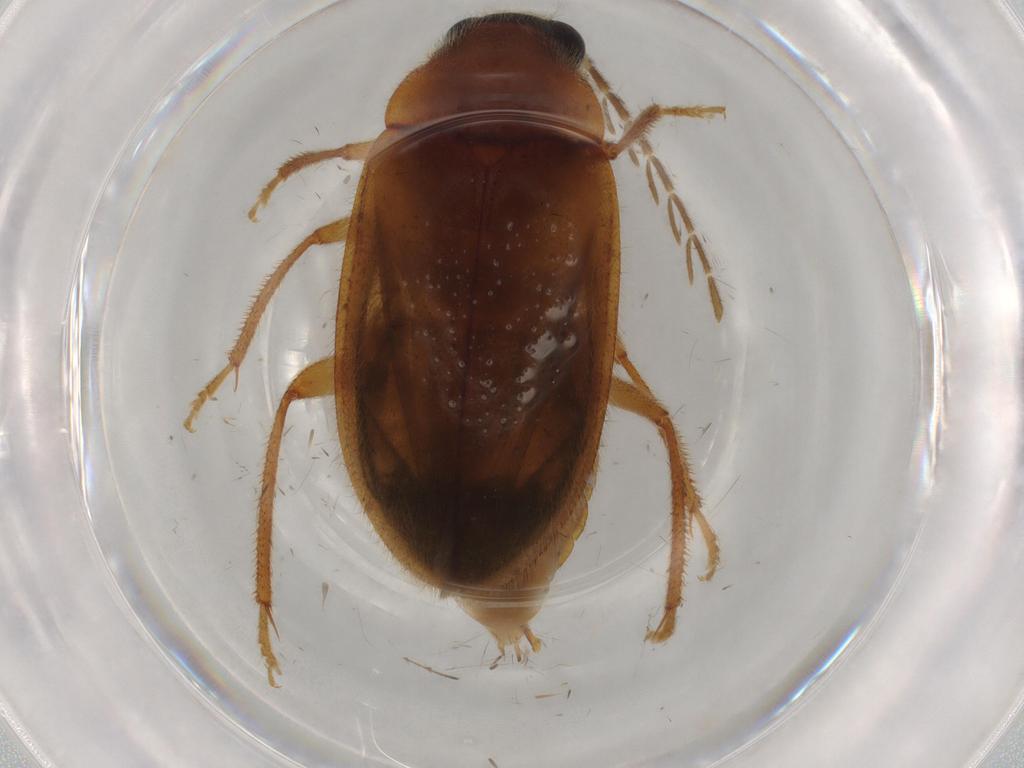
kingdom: Animalia
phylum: Arthropoda
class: Insecta
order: Coleoptera
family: Ptilodactylidae
